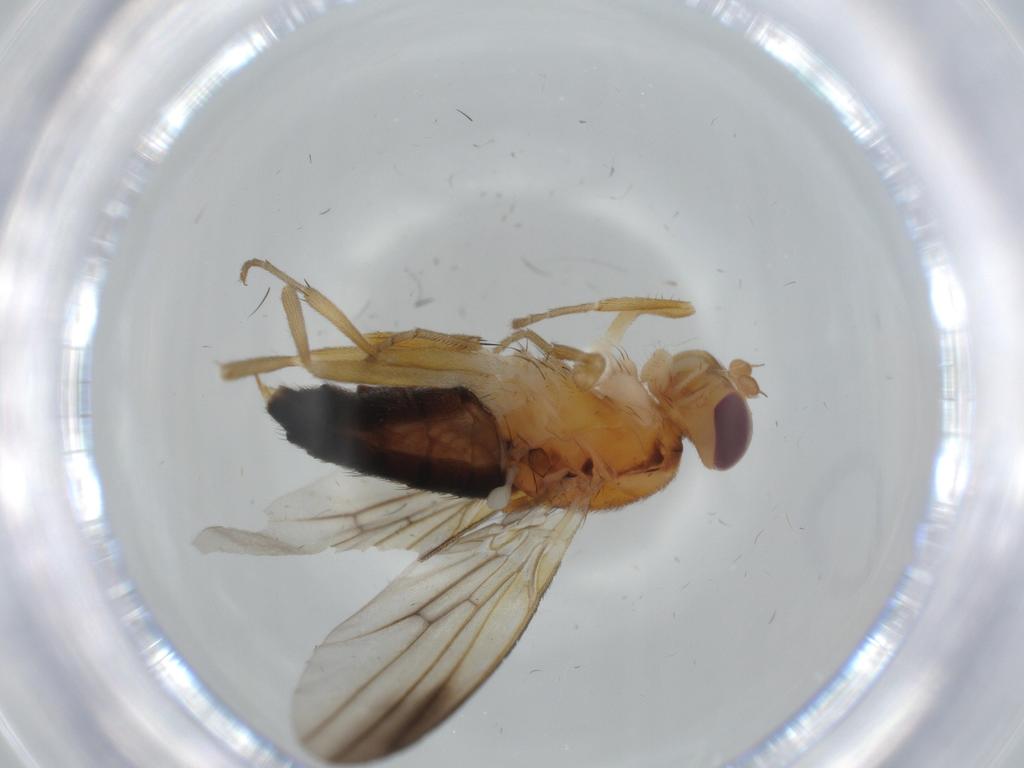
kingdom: Animalia
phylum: Arthropoda
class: Insecta
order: Diptera
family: Clusiidae
